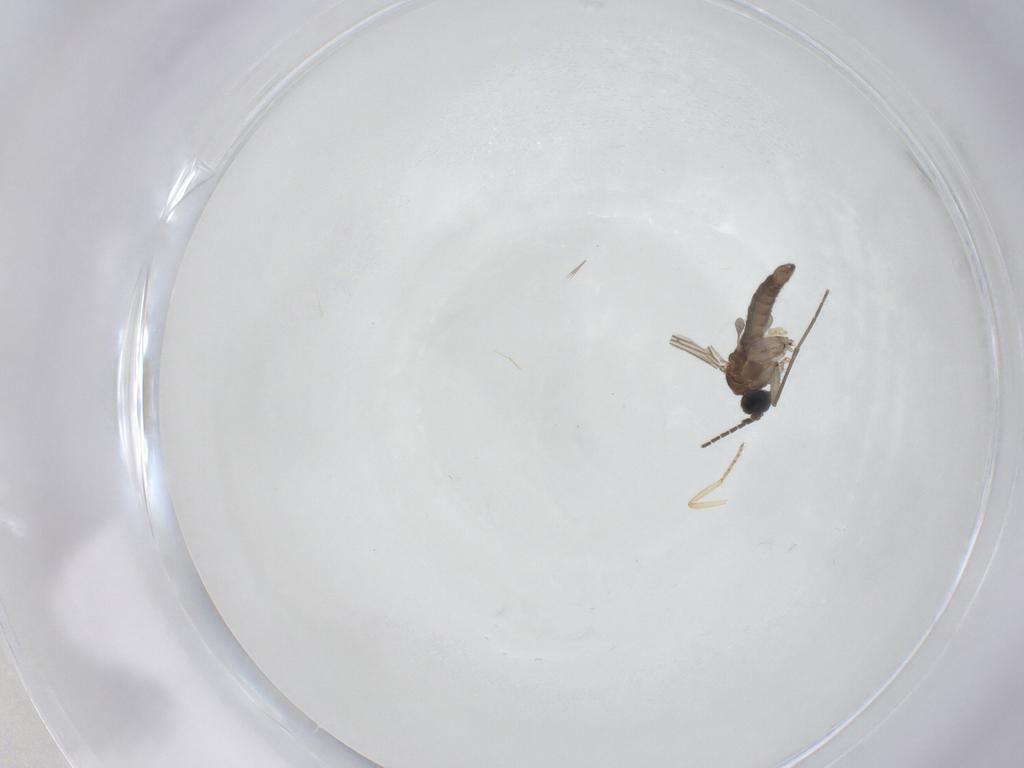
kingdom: Animalia
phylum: Arthropoda
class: Insecta
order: Diptera
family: Sciaridae
